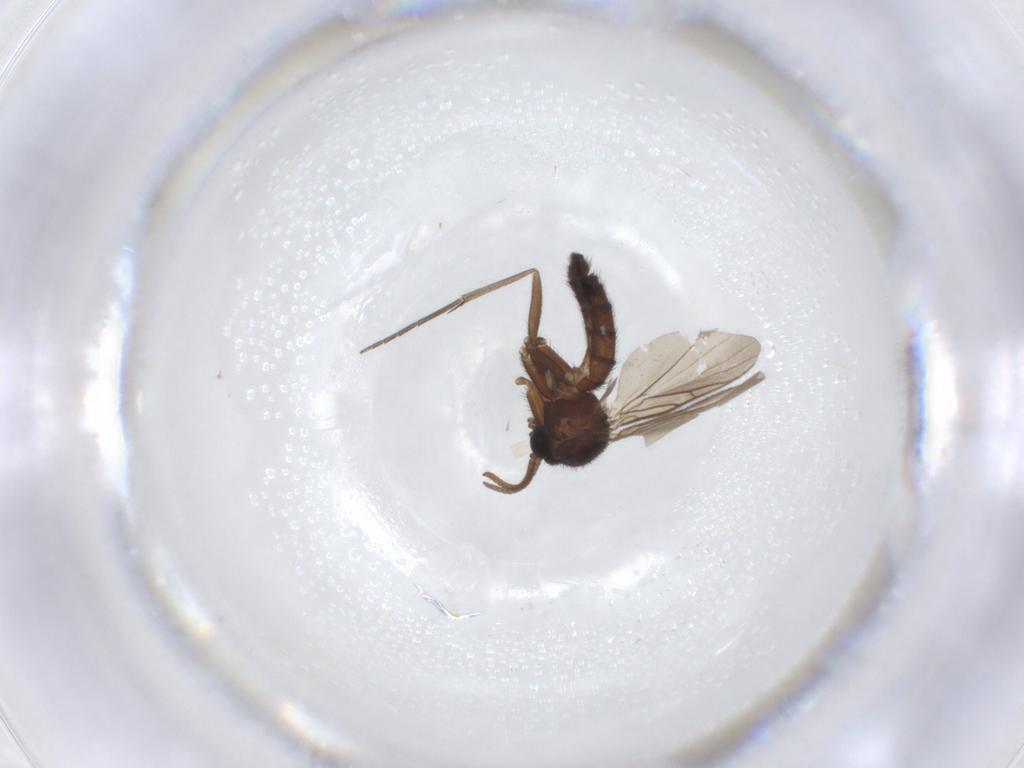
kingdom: Animalia
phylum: Arthropoda
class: Insecta
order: Diptera
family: Keroplatidae
